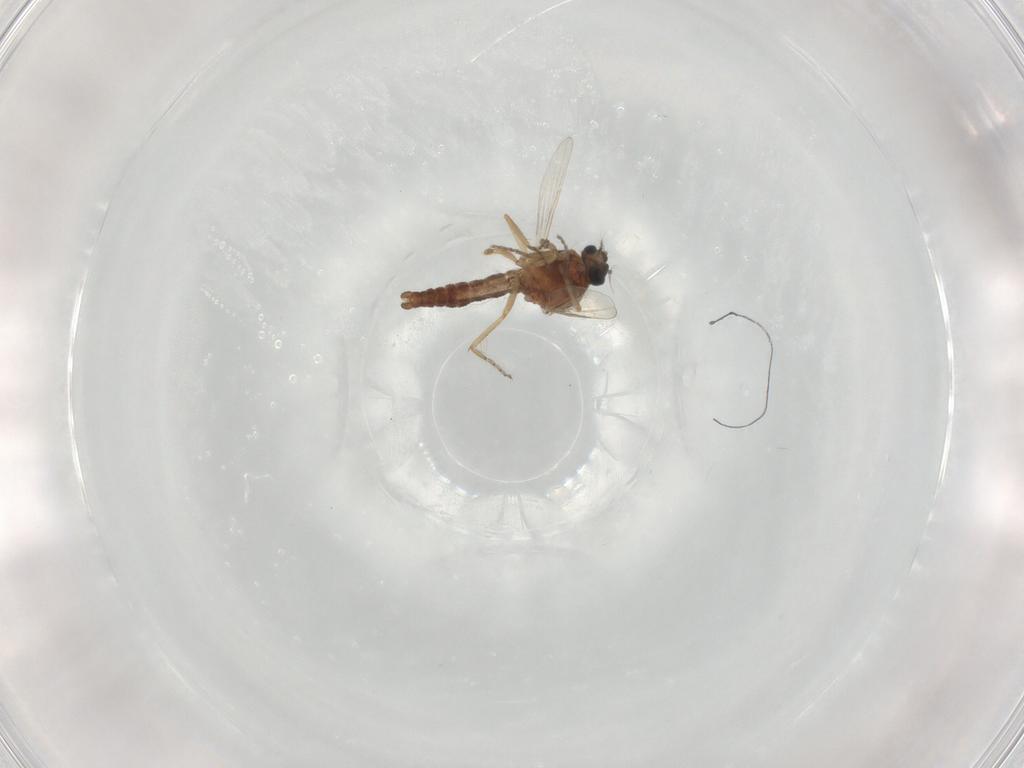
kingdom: Animalia
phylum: Arthropoda
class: Insecta
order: Diptera
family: Ceratopogonidae
